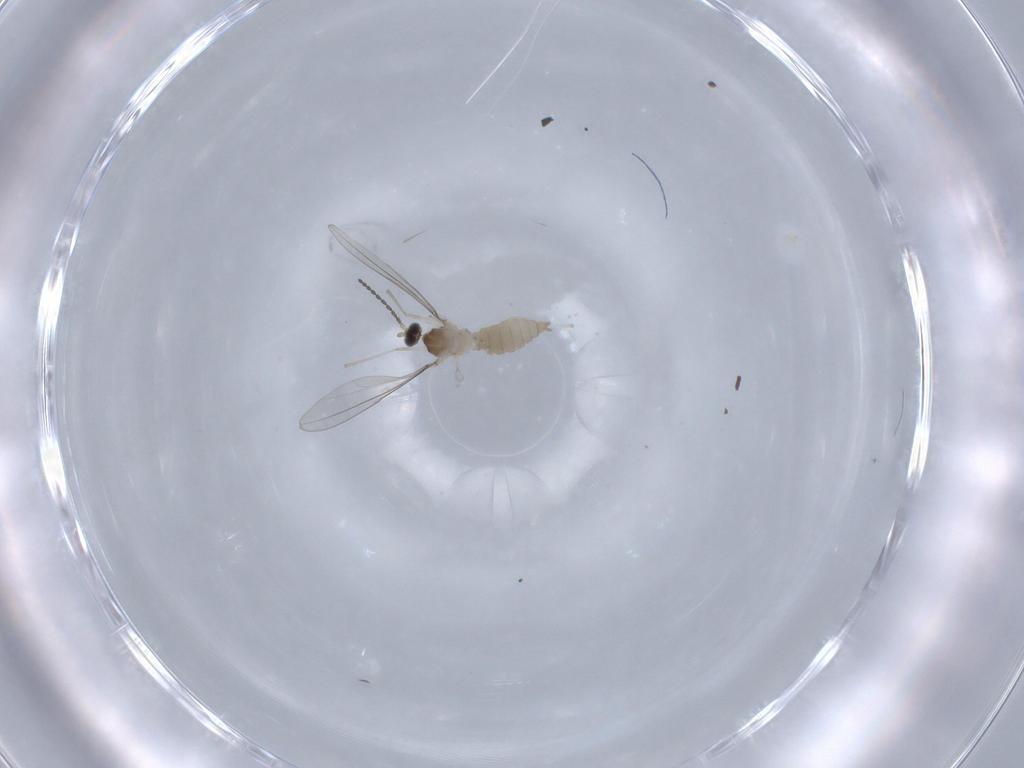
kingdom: Animalia
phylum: Arthropoda
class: Insecta
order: Diptera
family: Cecidomyiidae
